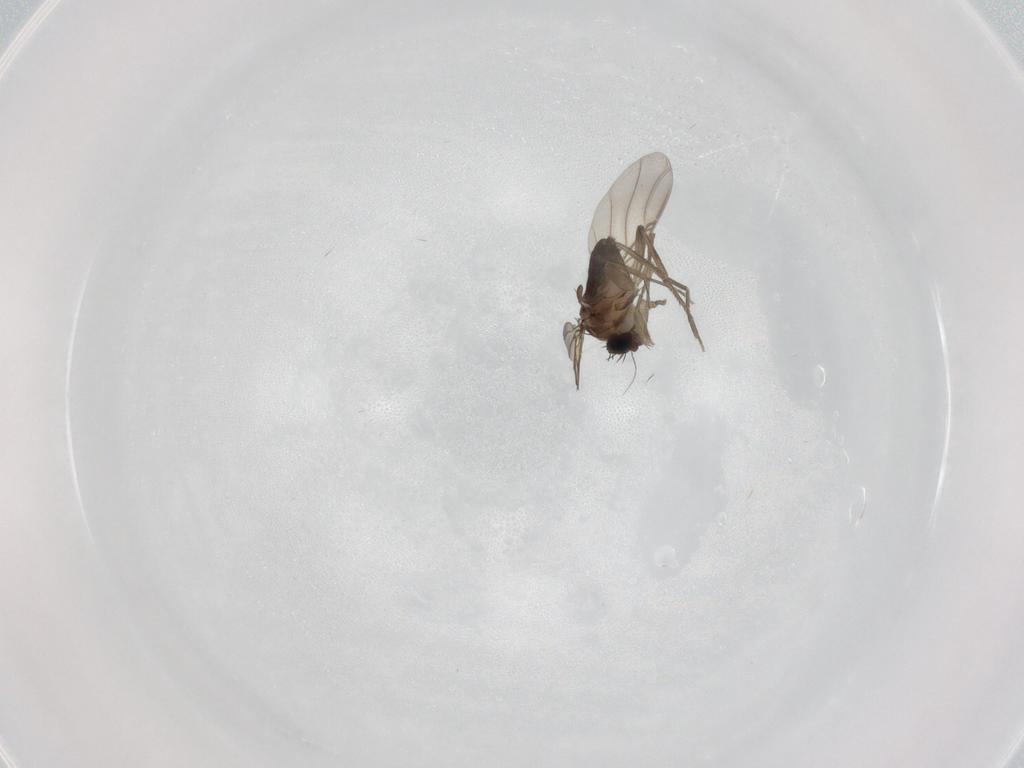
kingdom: Animalia
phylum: Arthropoda
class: Insecta
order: Diptera
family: Phoridae
